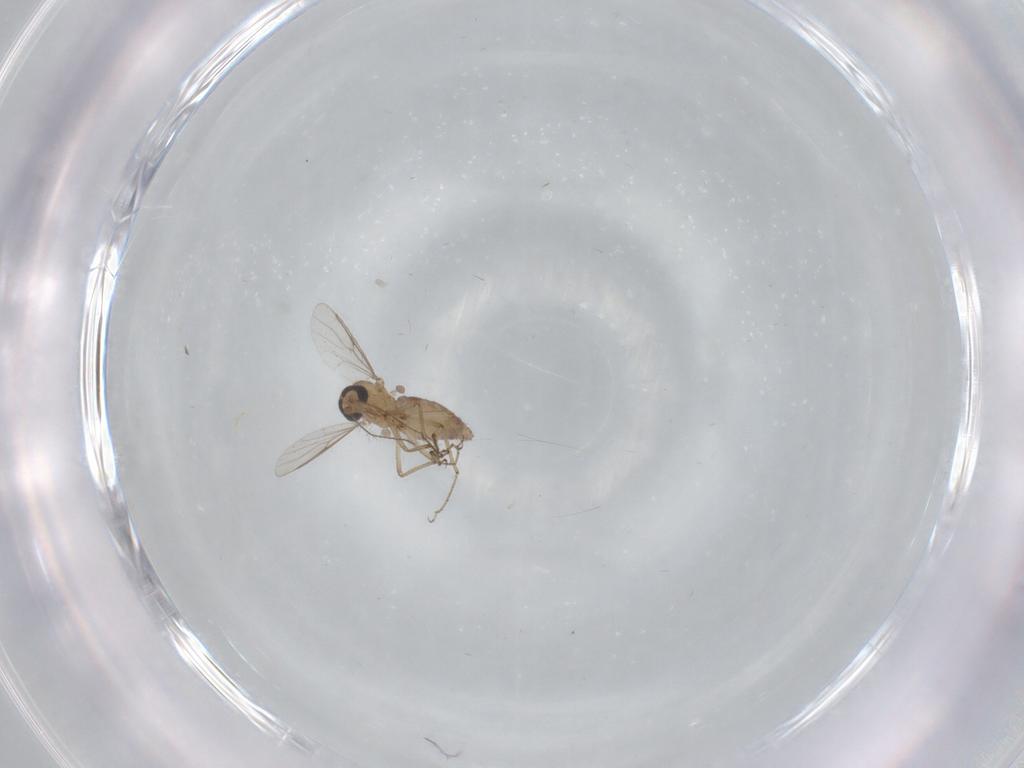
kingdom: Animalia
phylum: Arthropoda
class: Insecta
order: Diptera
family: Ceratopogonidae
